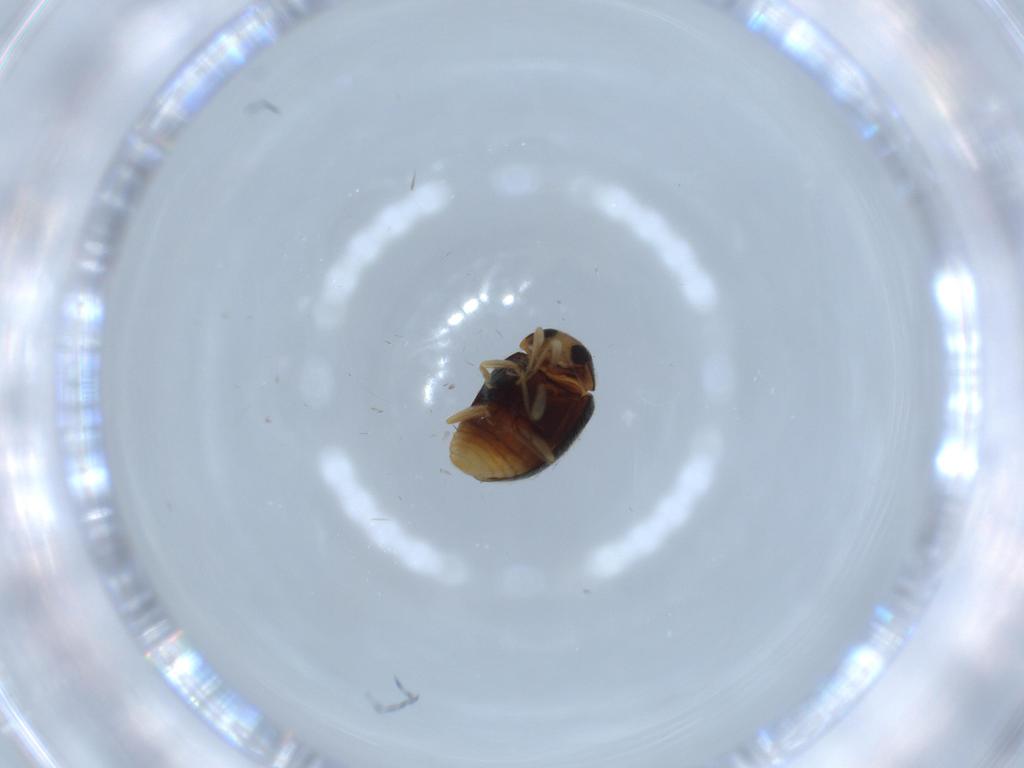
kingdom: Animalia
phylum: Arthropoda
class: Insecta
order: Coleoptera
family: Coccinellidae
